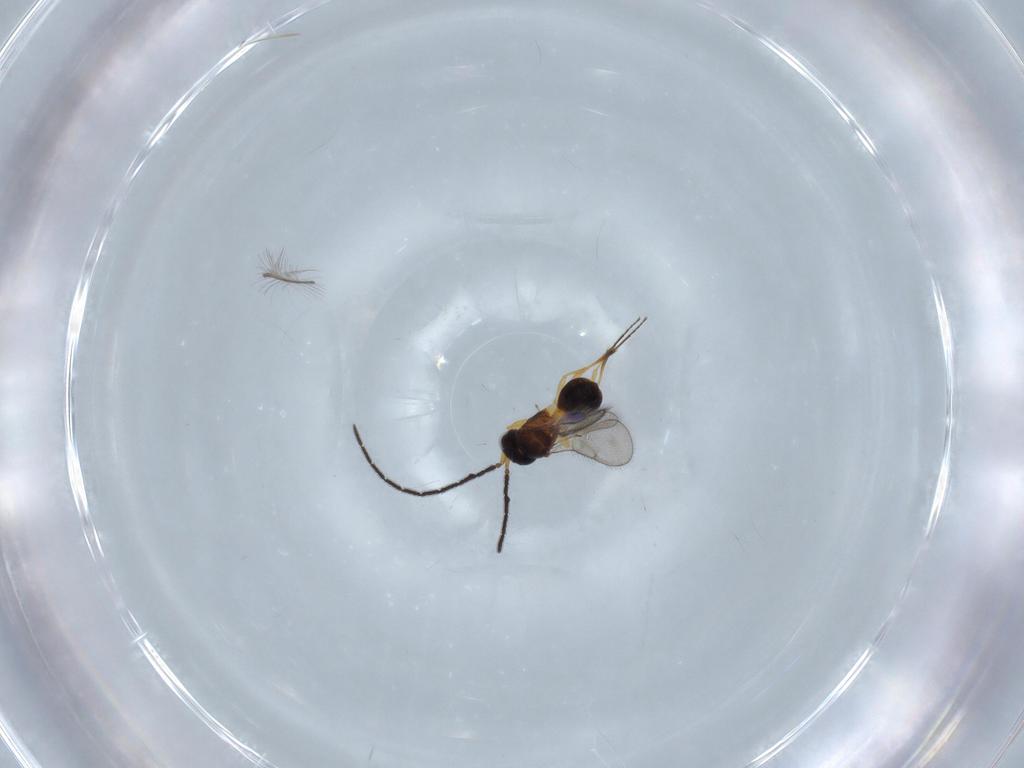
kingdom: Animalia
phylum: Arthropoda
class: Insecta
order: Hymenoptera
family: Scelionidae
